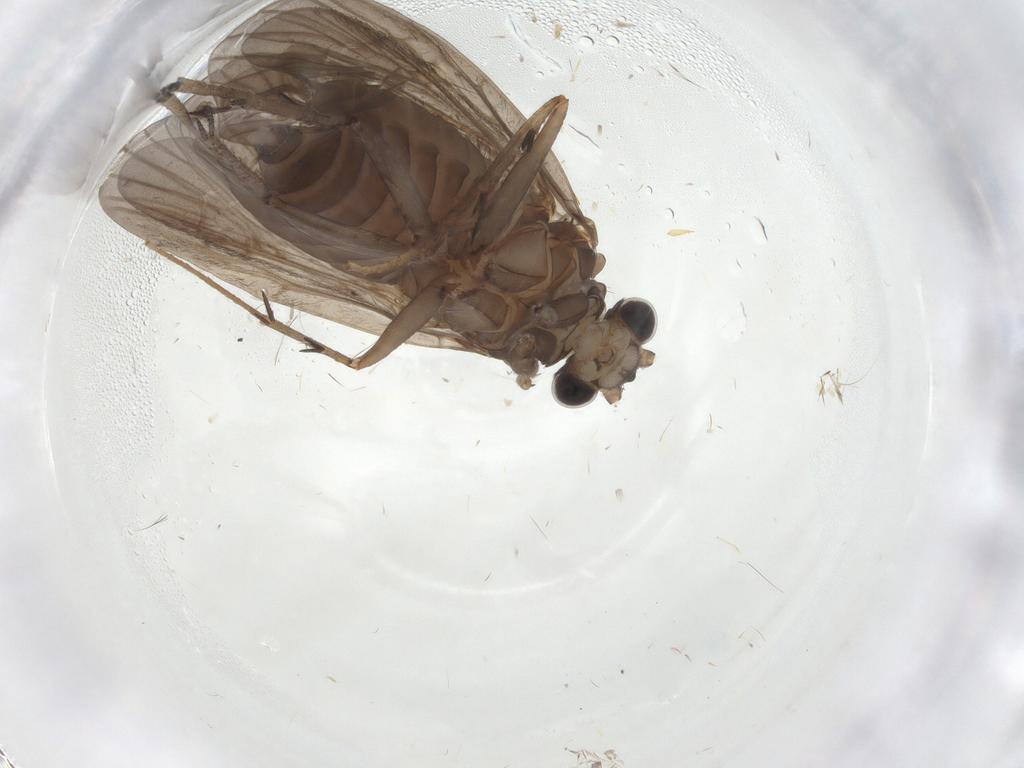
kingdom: Animalia
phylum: Arthropoda
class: Insecta
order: Trichoptera
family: Philopotamidae
